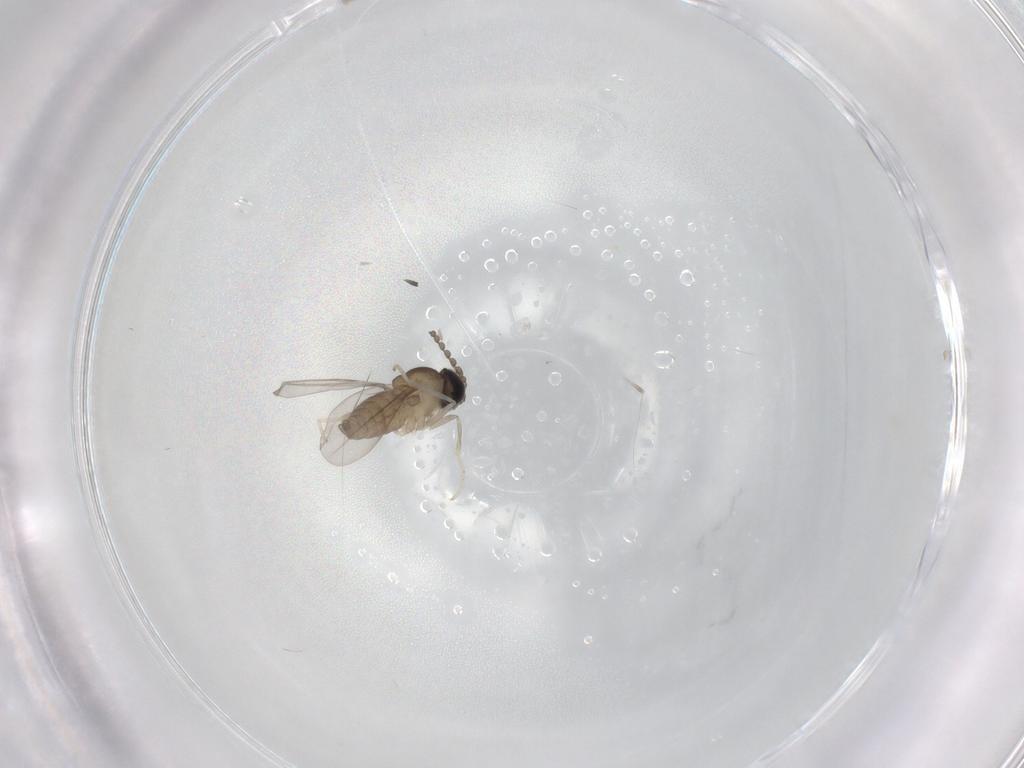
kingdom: Animalia
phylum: Arthropoda
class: Insecta
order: Diptera
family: Cecidomyiidae
